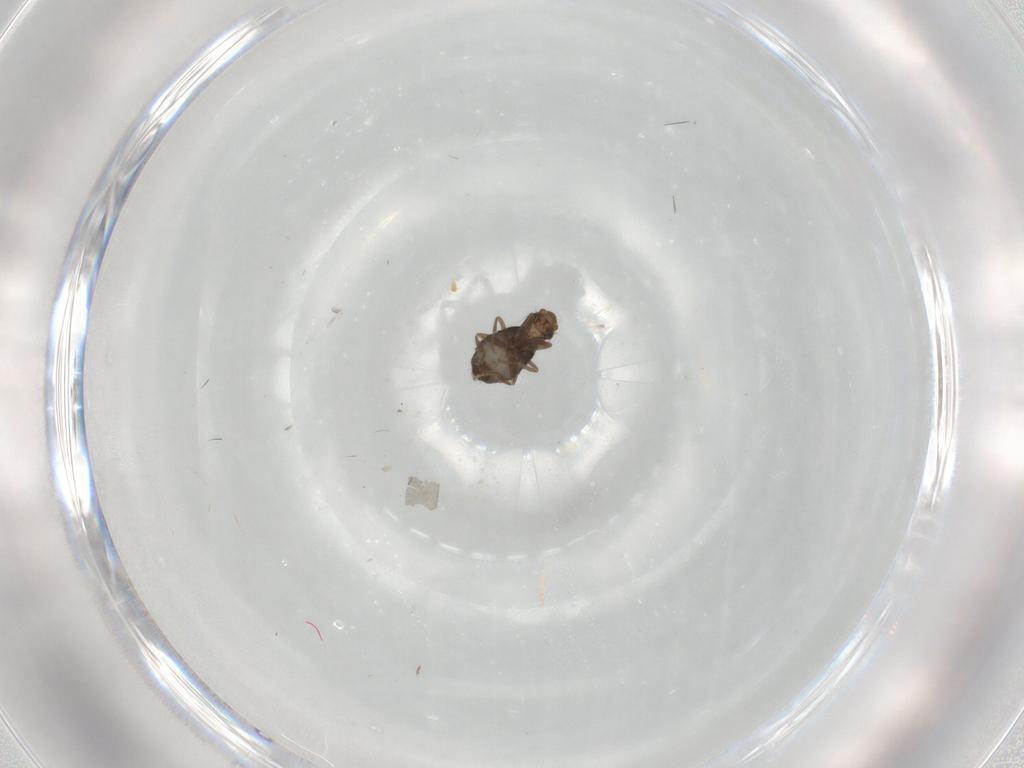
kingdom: Animalia
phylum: Arthropoda
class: Insecta
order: Diptera
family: Phoridae
